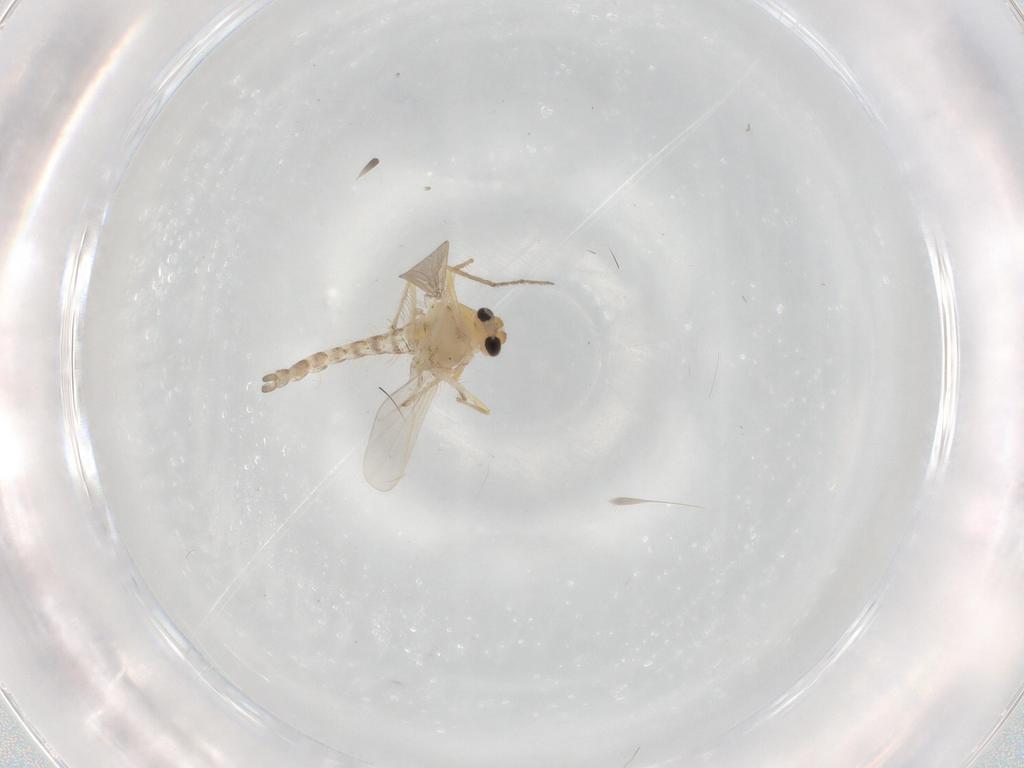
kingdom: Animalia
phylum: Arthropoda
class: Insecta
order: Diptera
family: Chironomidae
